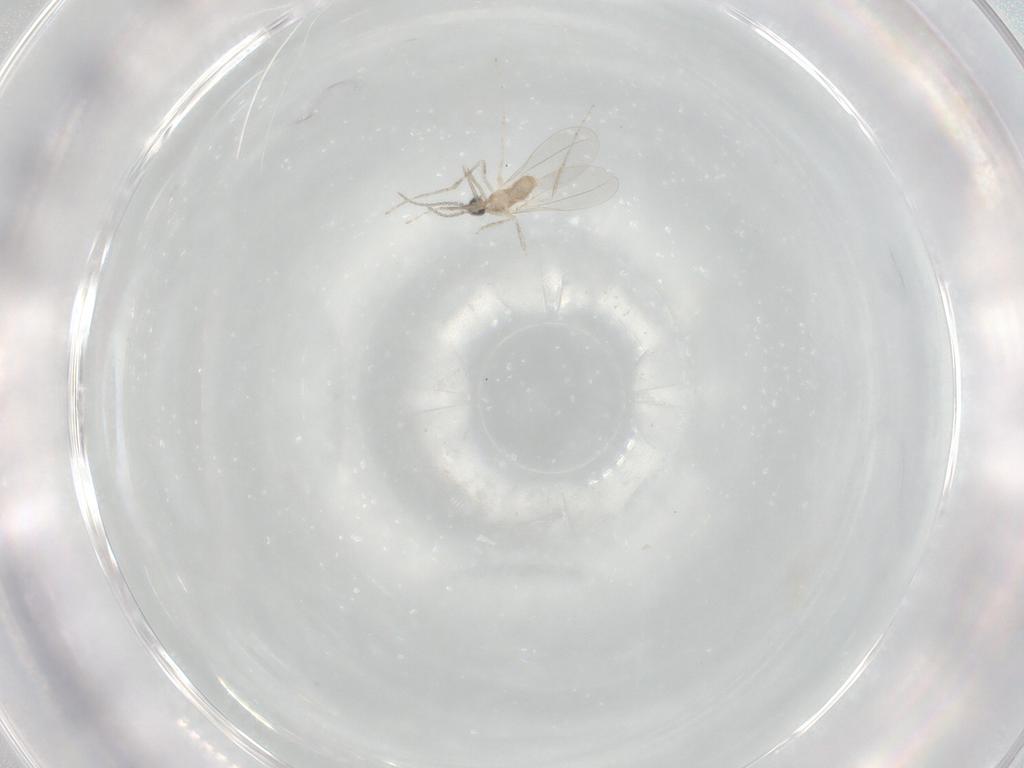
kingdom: Animalia
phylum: Arthropoda
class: Insecta
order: Diptera
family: Cecidomyiidae
